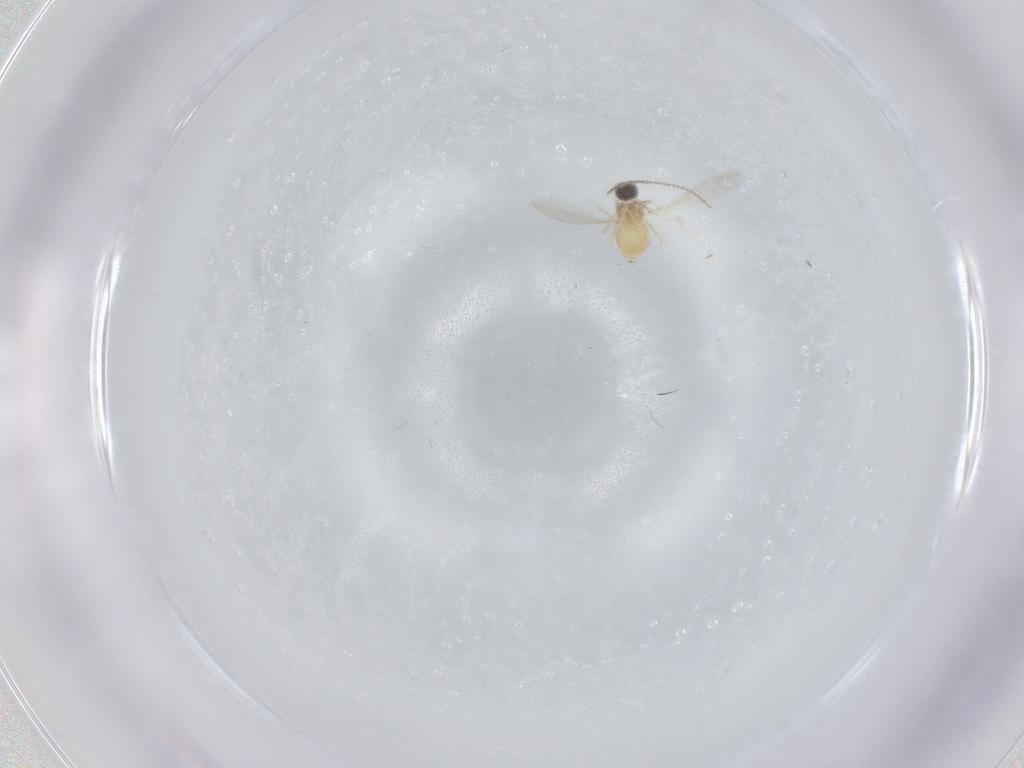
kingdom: Animalia
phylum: Arthropoda
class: Insecta
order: Diptera
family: Cecidomyiidae
